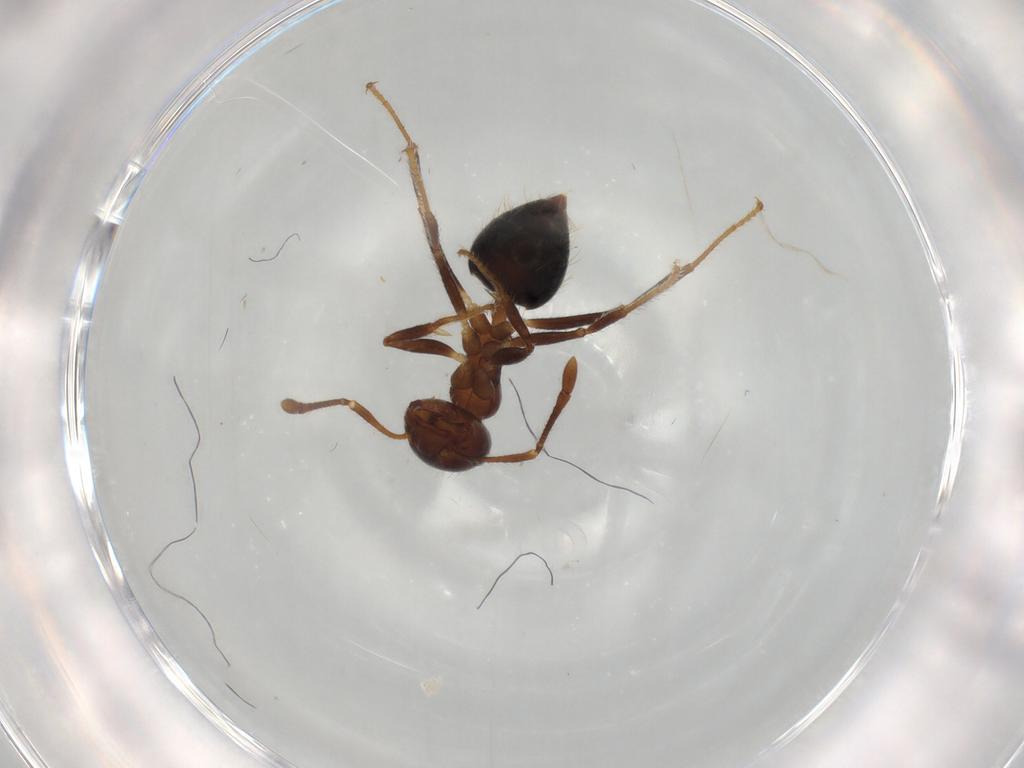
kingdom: Animalia
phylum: Arthropoda
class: Insecta
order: Hymenoptera
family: Formicidae
